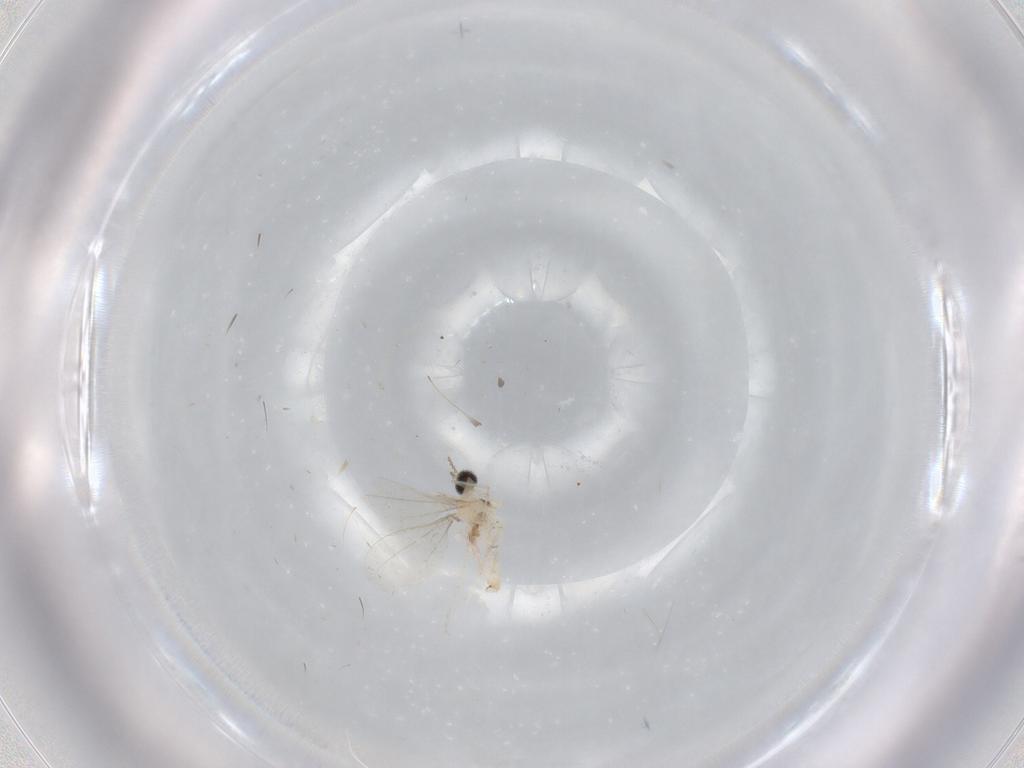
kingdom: Animalia
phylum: Arthropoda
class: Insecta
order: Diptera
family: Cecidomyiidae
